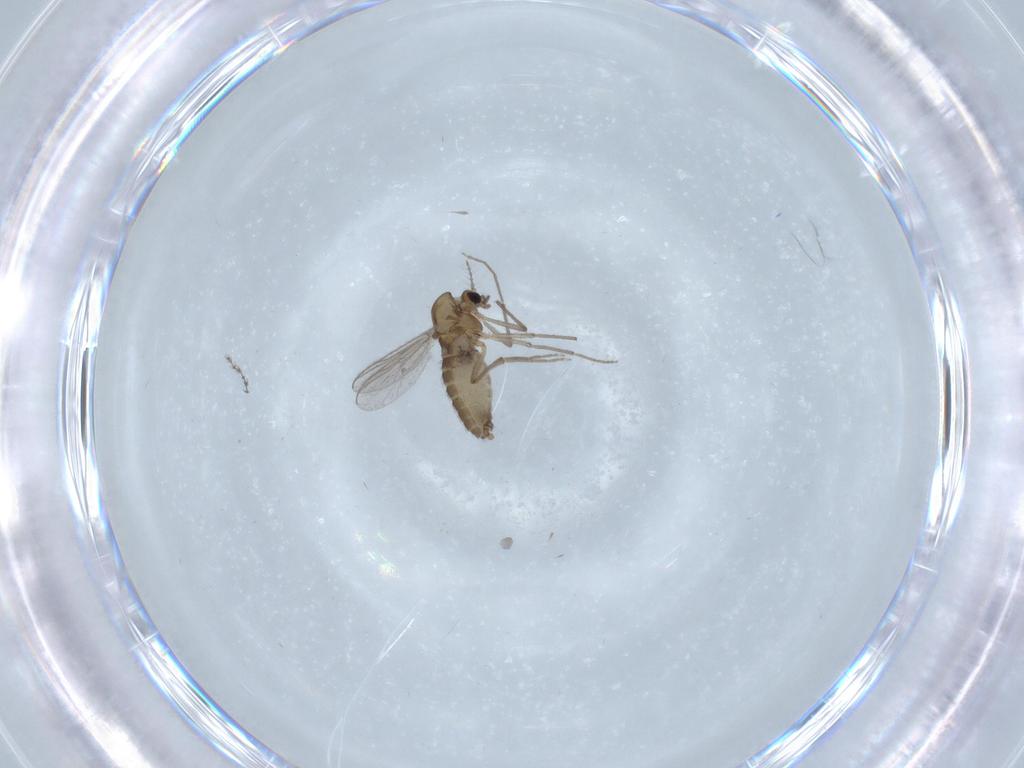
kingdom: Animalia
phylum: Arthropoda
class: Insecta
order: Diptera
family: Chironomidae
